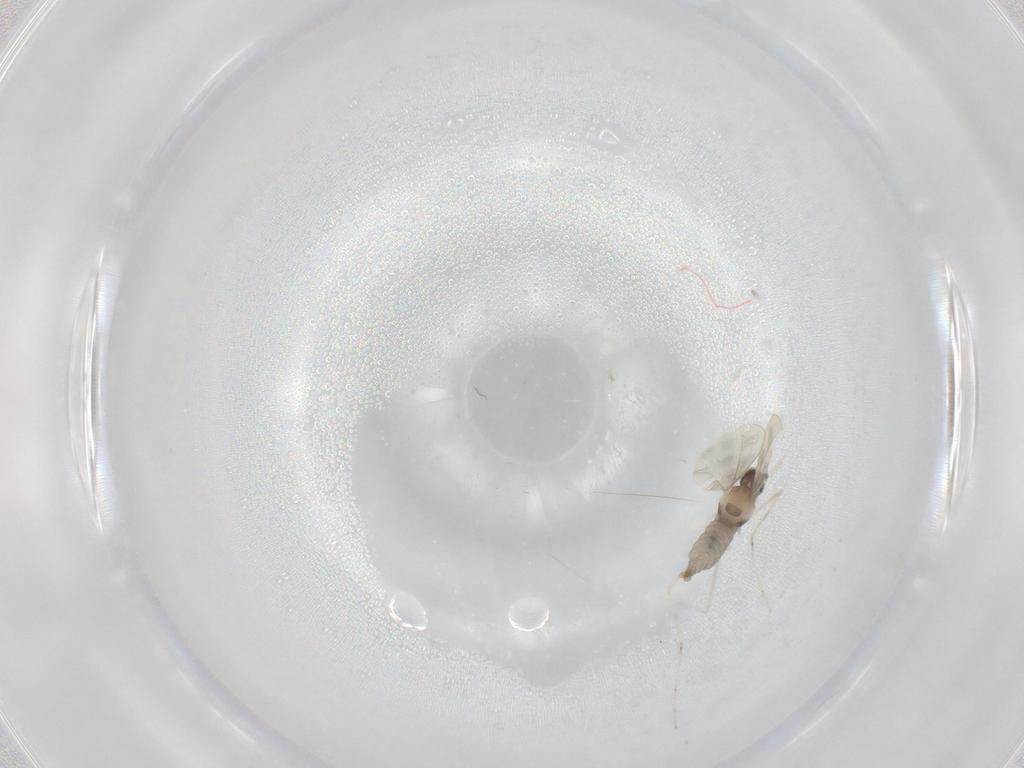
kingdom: Animalia
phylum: Arthropoda
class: Insecta
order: Diptera
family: Cecidomyiidae
